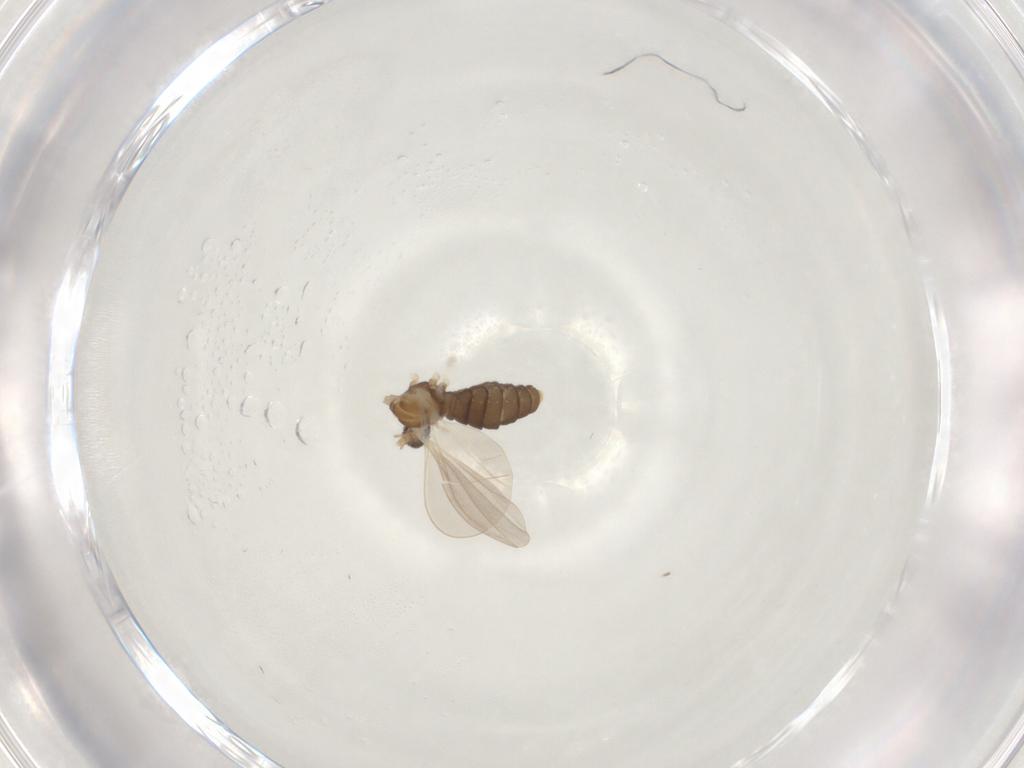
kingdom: Animalia
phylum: Arthropoda
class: Insecta
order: Diptera
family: Cecidomyiidae
